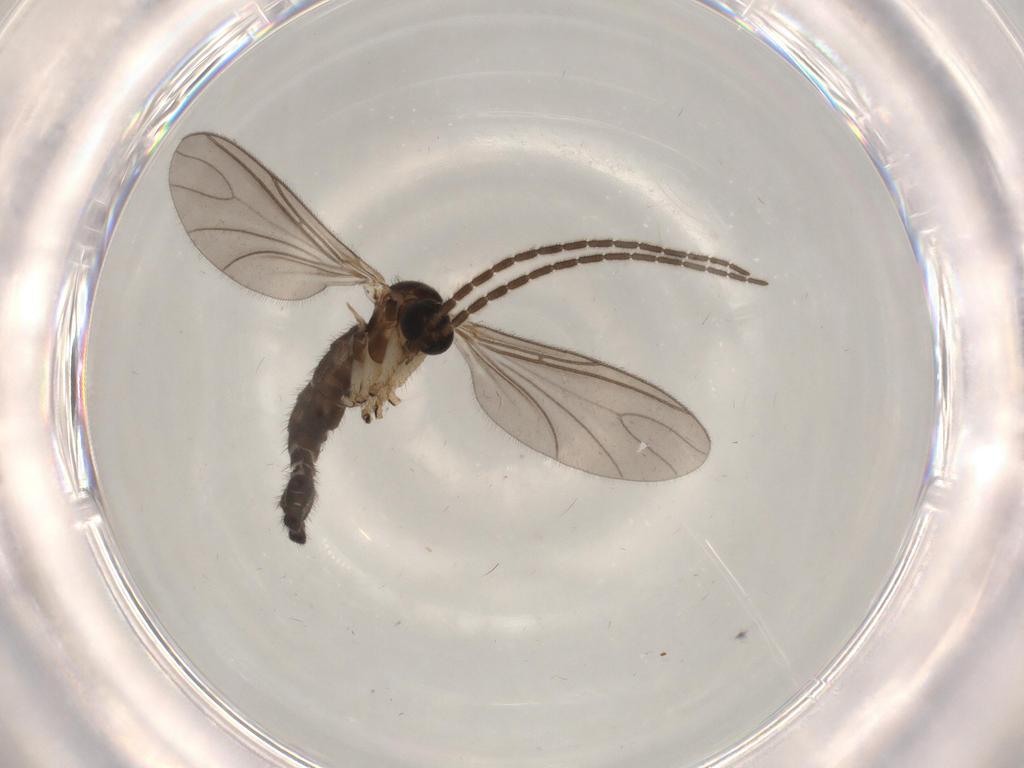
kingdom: Animalia
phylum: Arthropoda
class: Insecta
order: Diptera
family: Sciaridae
